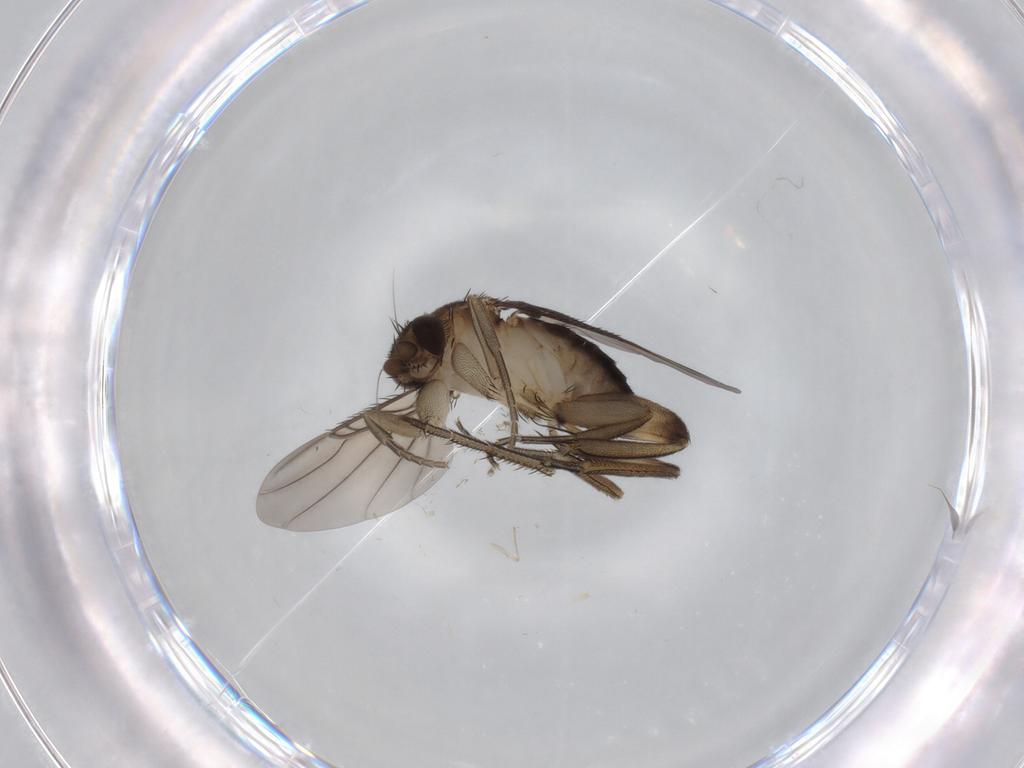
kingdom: Animalia
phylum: Arthropoda
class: Insecta
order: Diptera
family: Phoridae
